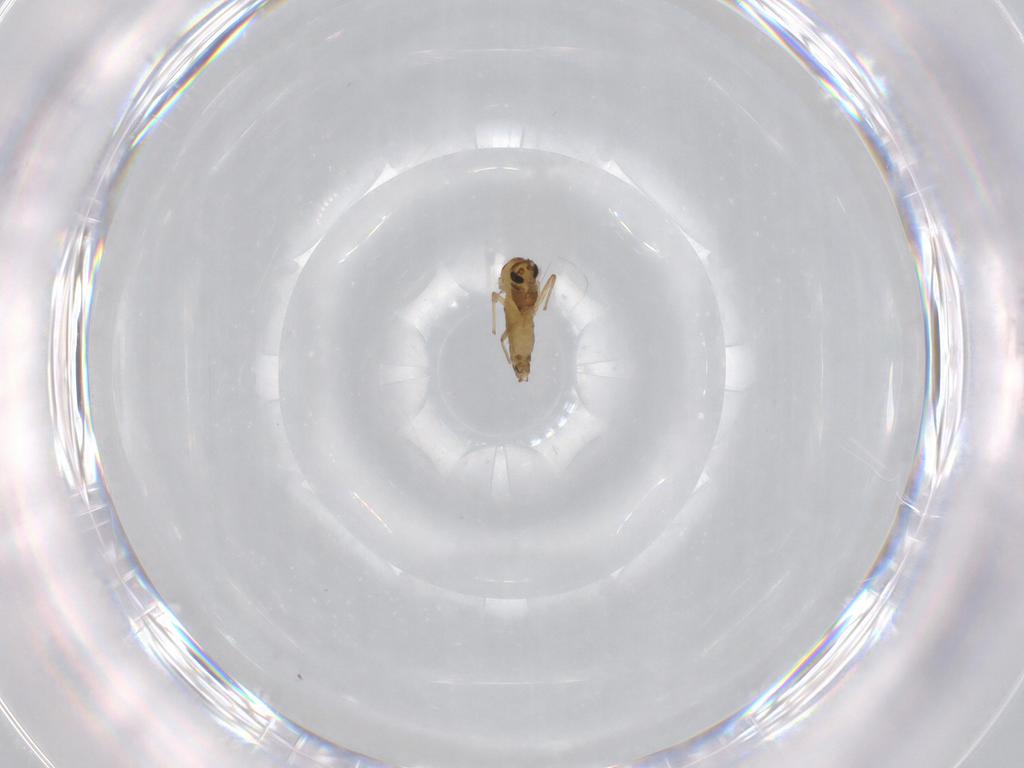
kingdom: Animalia
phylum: Arthropoda
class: Insecta
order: Diptera
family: Chironomidae
